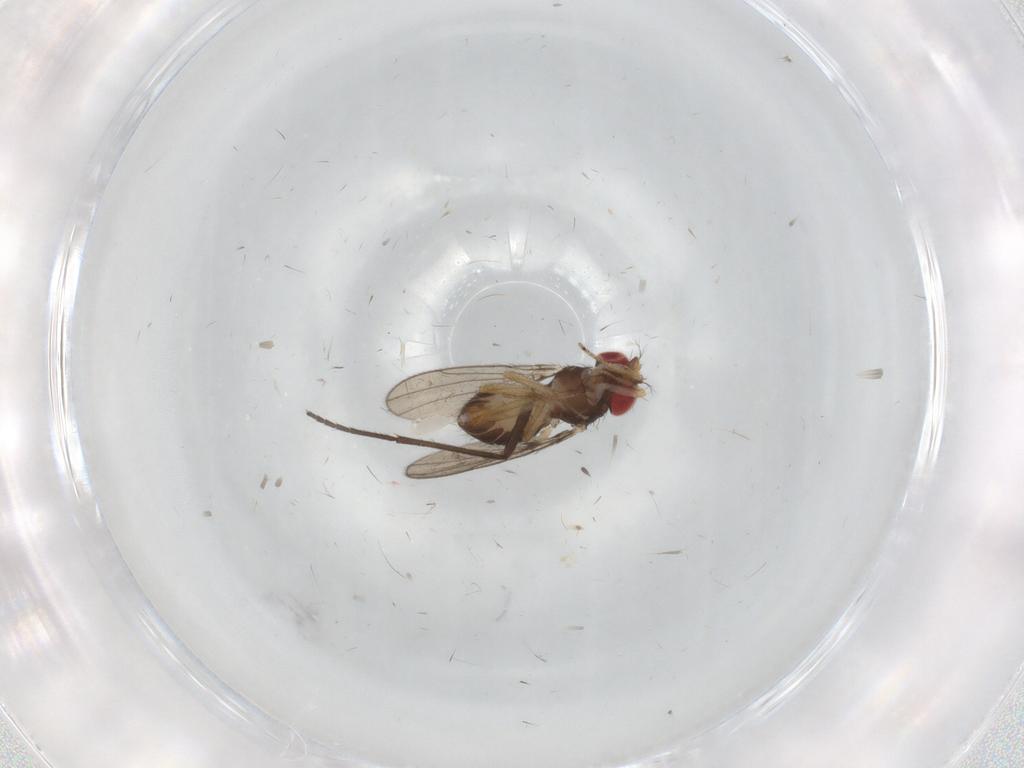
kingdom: Animalia
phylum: Arthropoda
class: Insecta
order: Diptera
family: Drosophilidae
